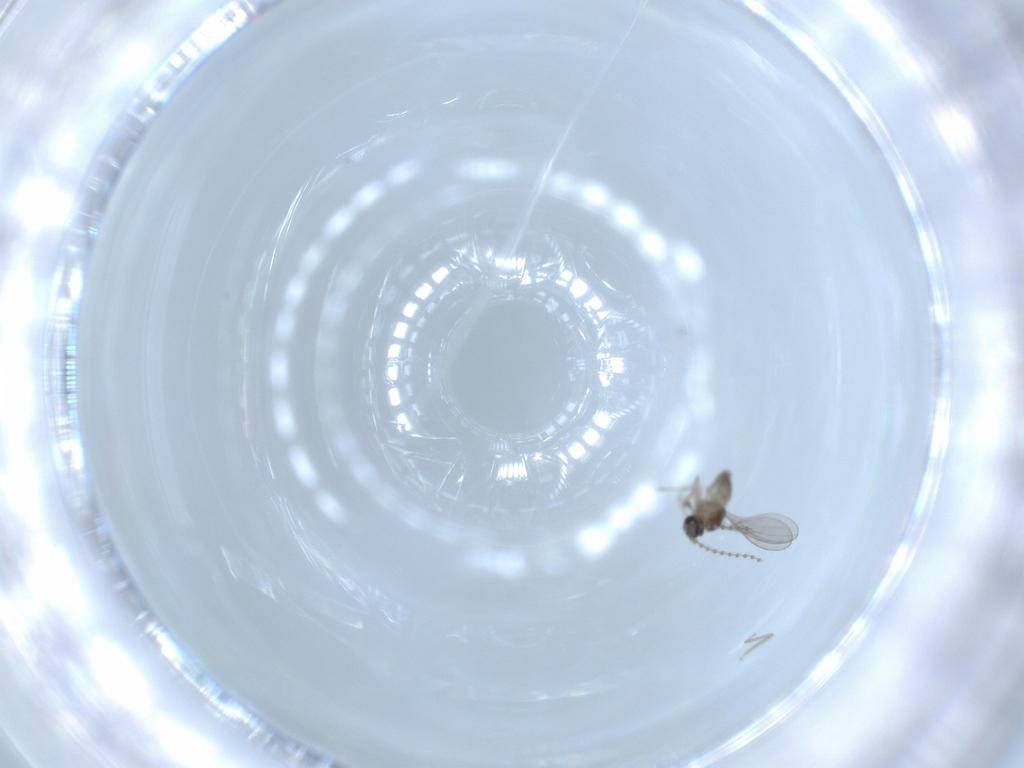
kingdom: Animalia
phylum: Arthropoda
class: Insecta
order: Diptera
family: Cecidomyiidae
